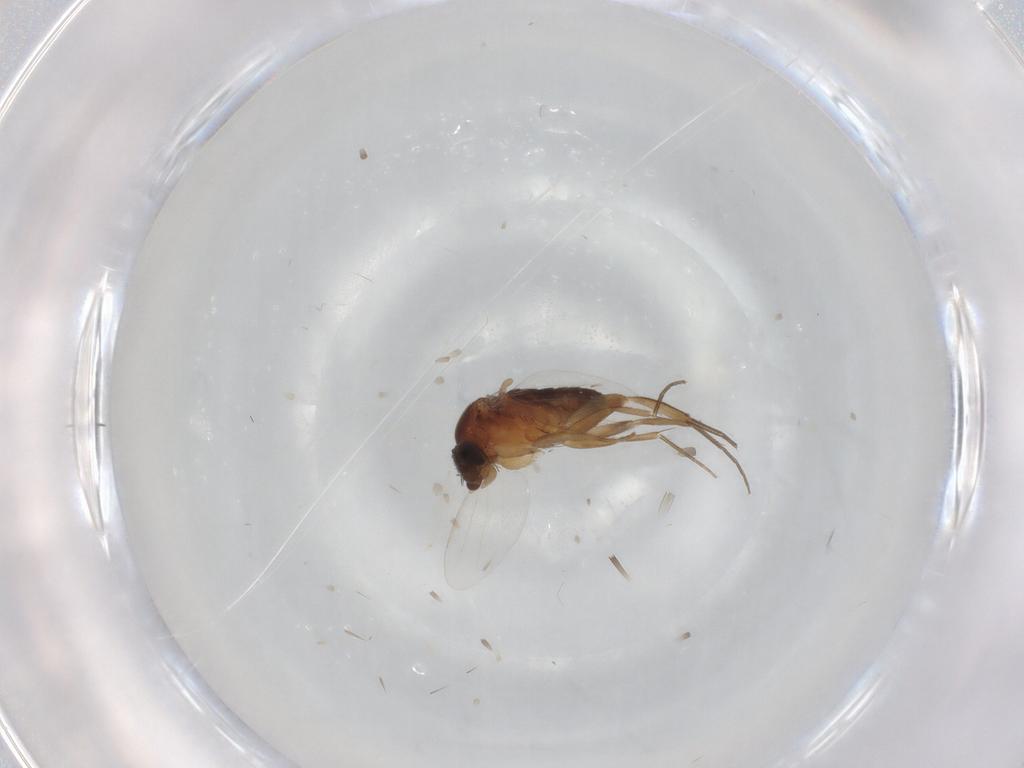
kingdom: Animalia
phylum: Arthropoda
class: Insecta
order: Diptera
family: Phoridae
